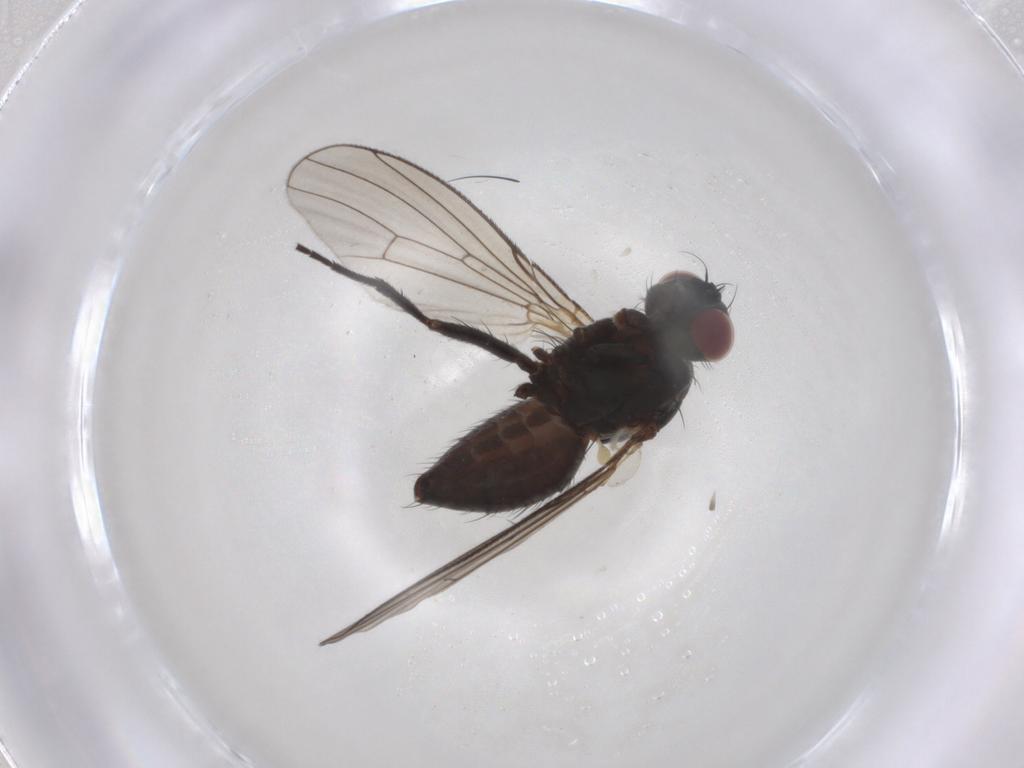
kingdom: Animalia
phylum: Arthropoda
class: Insecta
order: Diptera
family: Muscidae
